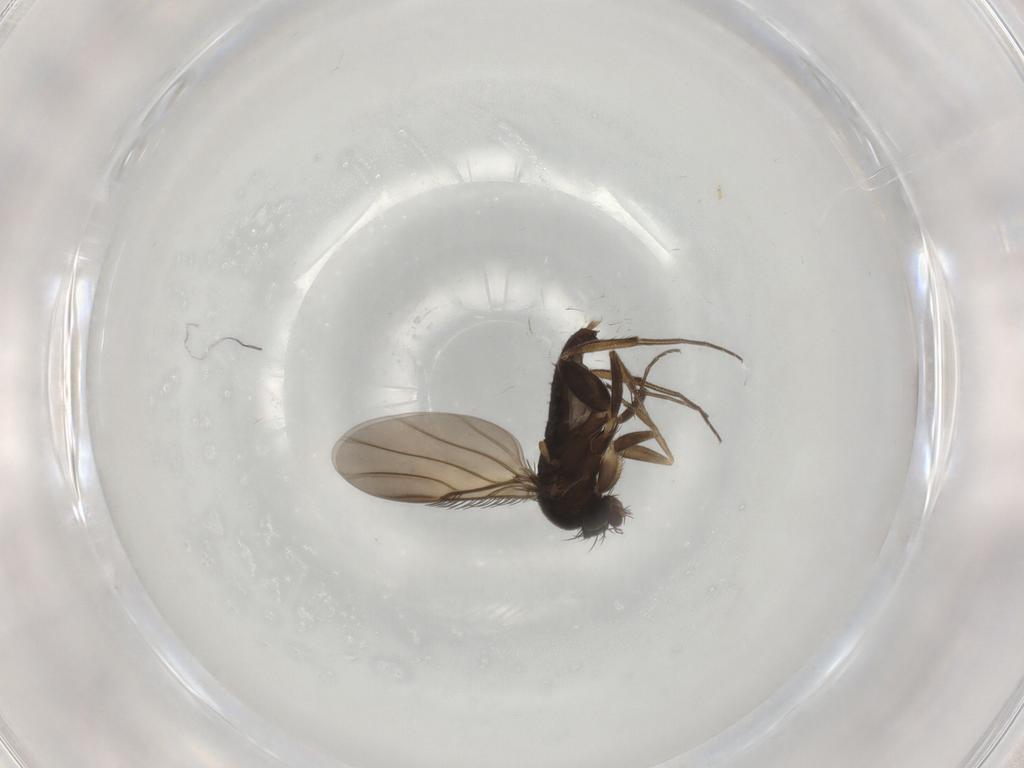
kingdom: Animalia
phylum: Arthropoda
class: Insecta
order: Diptera
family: Phoridae
